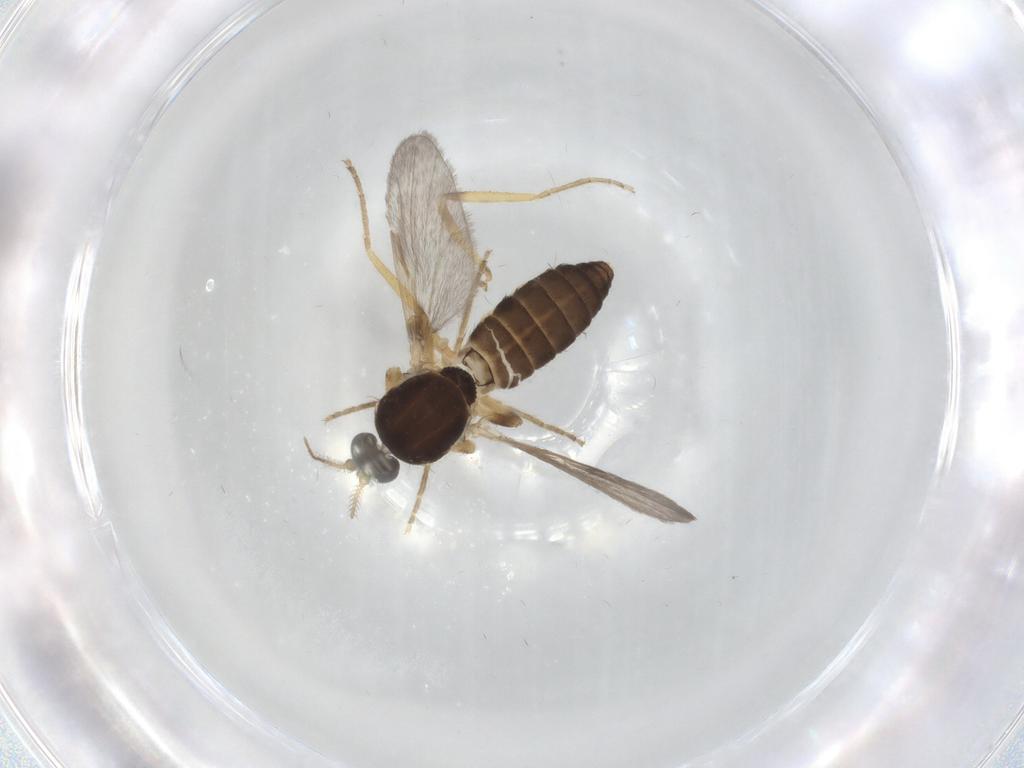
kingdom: Animalia
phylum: Arthropoda
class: Insecta
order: Diptera
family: Ceratopogonidae
